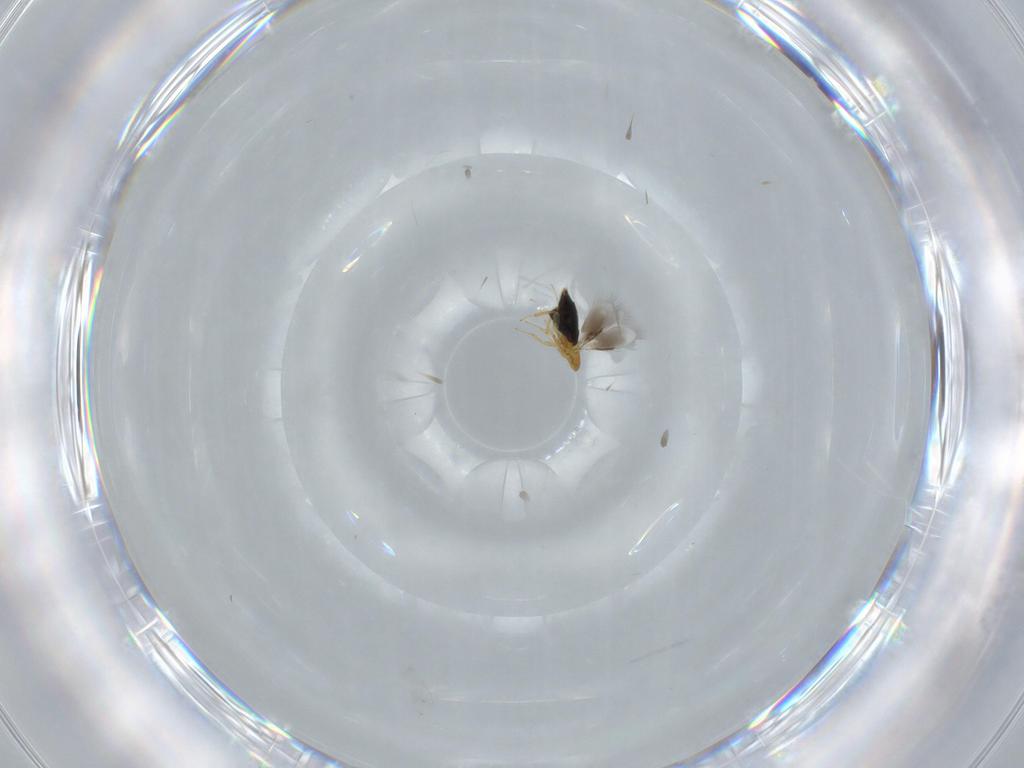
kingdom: Animalia
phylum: Arthropoda
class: Insecta
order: Hymenoptera
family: Signiphoridae
